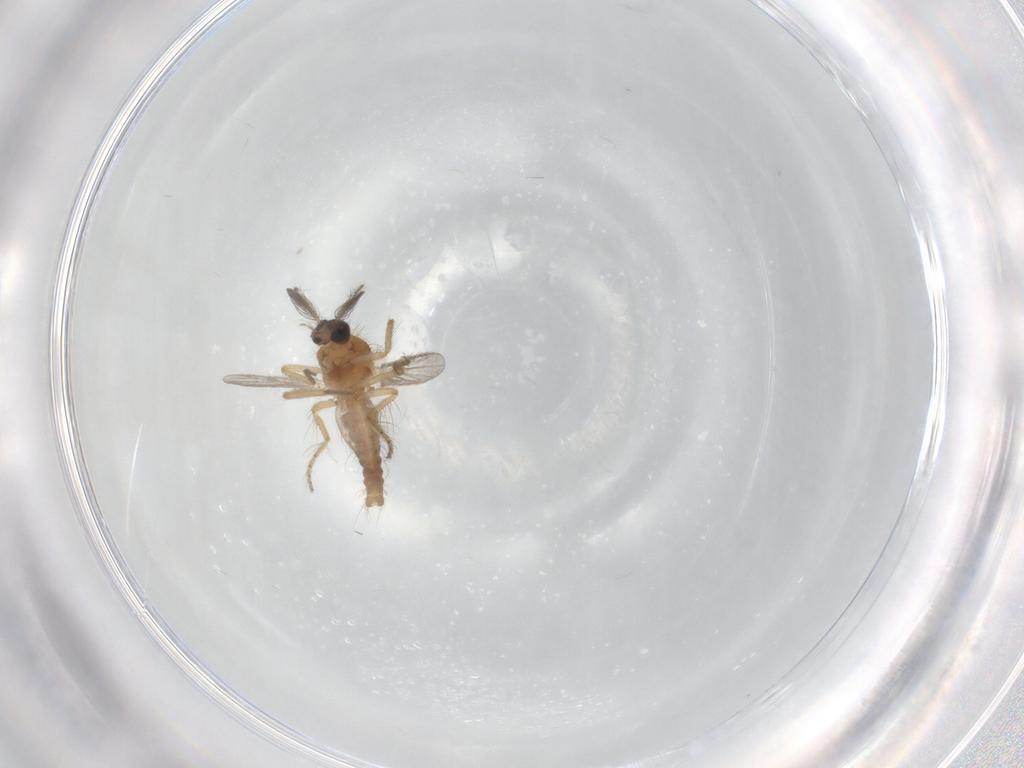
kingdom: Animalia
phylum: Arthropoda
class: Insecta
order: Diptera
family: Ceratopogonidae
